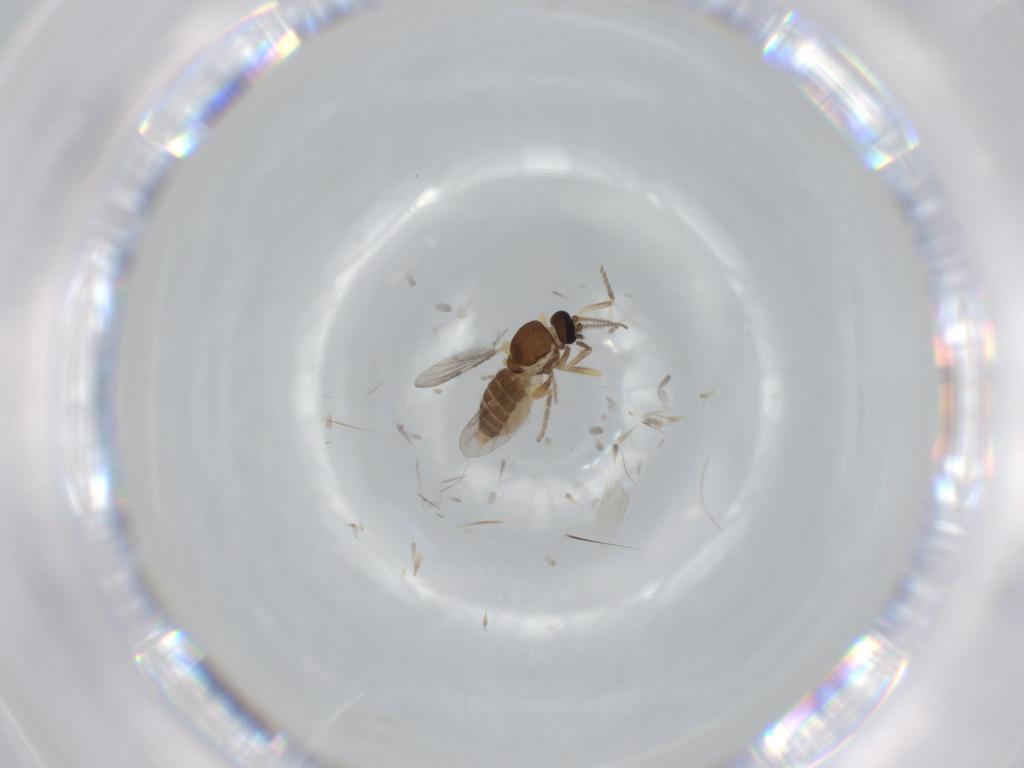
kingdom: Animalia
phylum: Arthropoda
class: Insecta
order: Diptera
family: Ceratopogonidae
